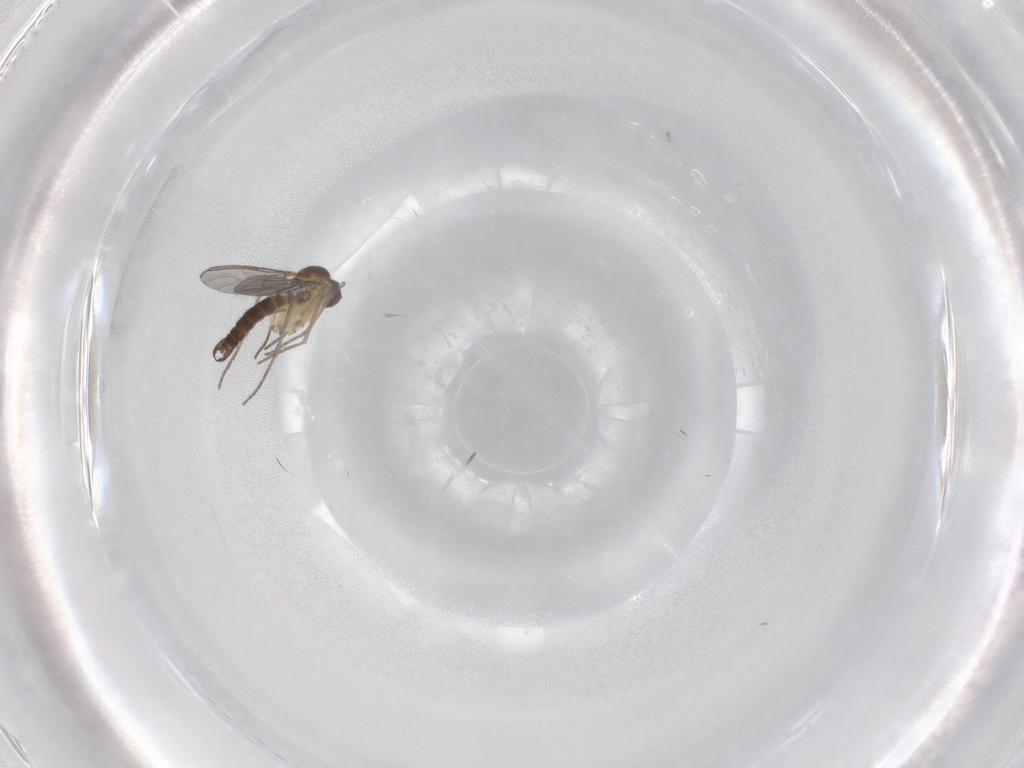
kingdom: Animalia
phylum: Arthropoda
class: Insecta
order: Diptera
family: Sciaridae
